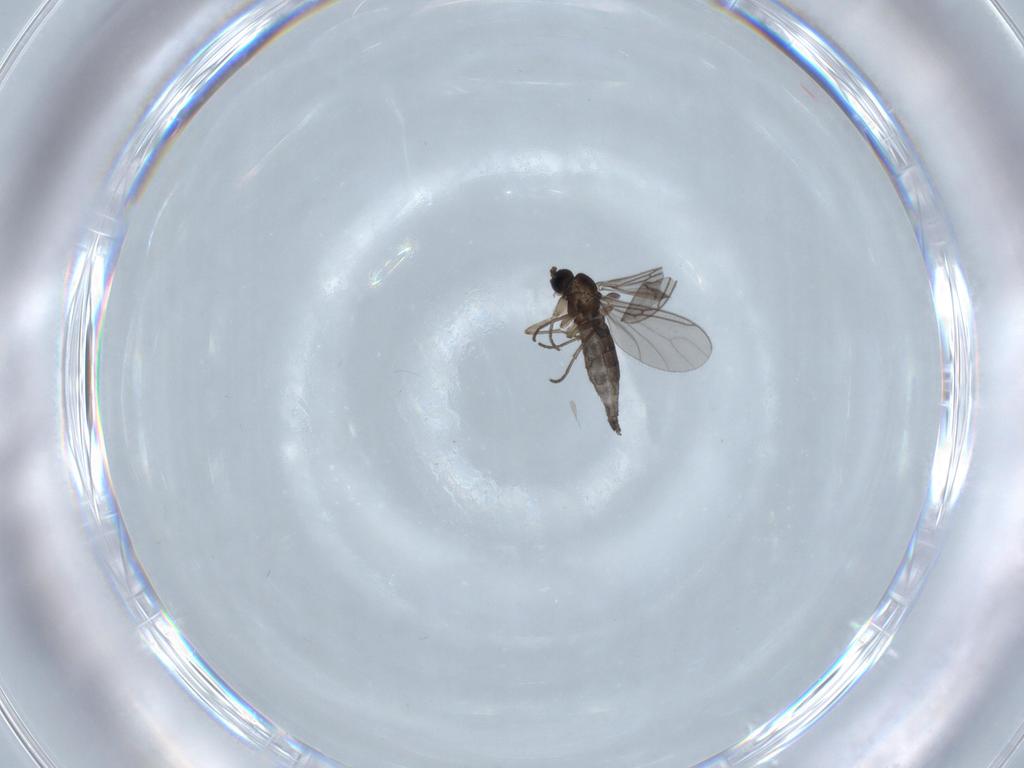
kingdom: Animalia
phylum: Arthropoda
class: Insecta
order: Diptera
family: Sciaridae
